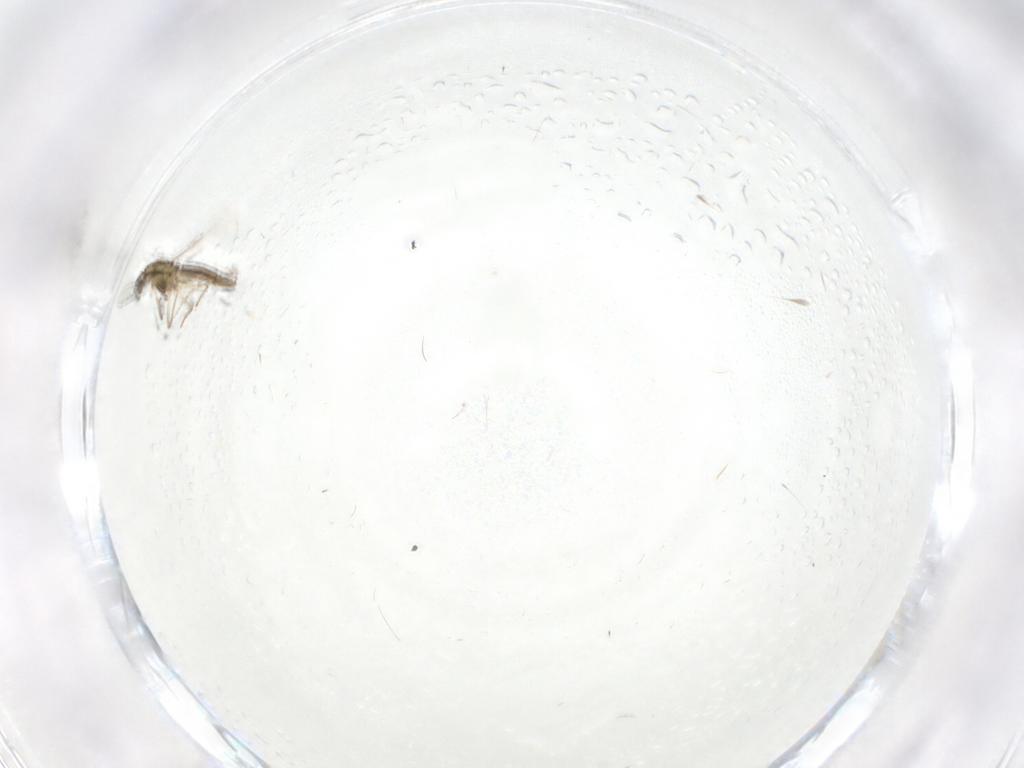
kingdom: Animalia
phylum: Arthropoda
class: Insecta
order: Diptera
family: Chironomidae
